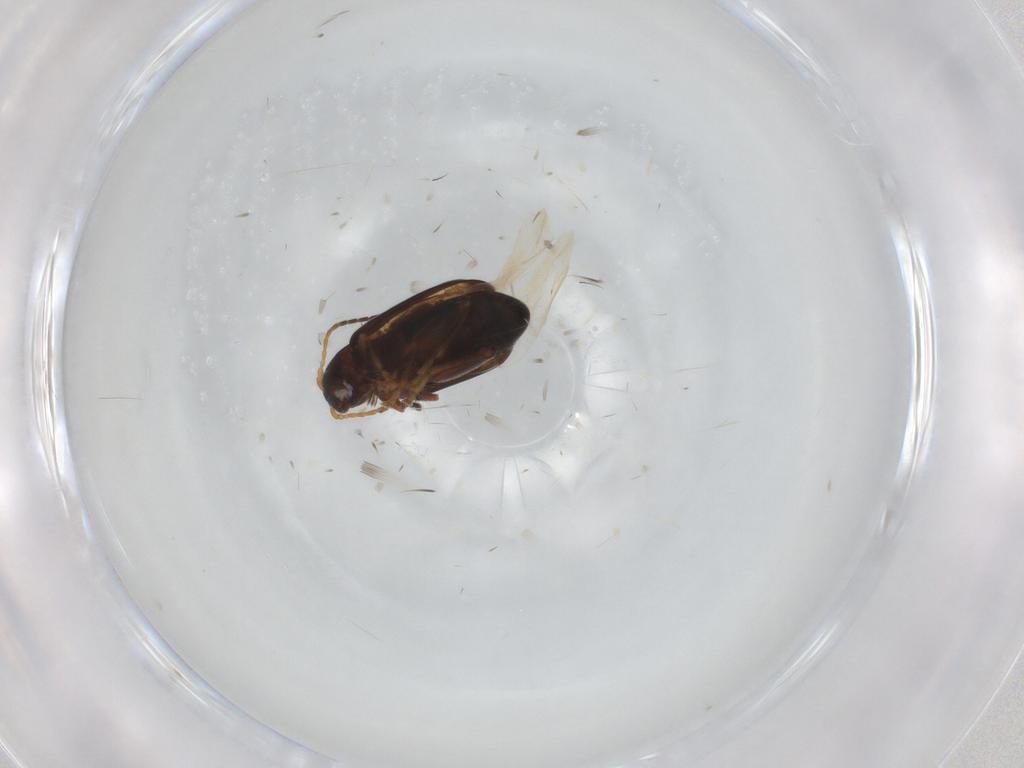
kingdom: Animalia
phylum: Arthropoda
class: Insecta
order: Coleoptera
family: Chrysomelidae
